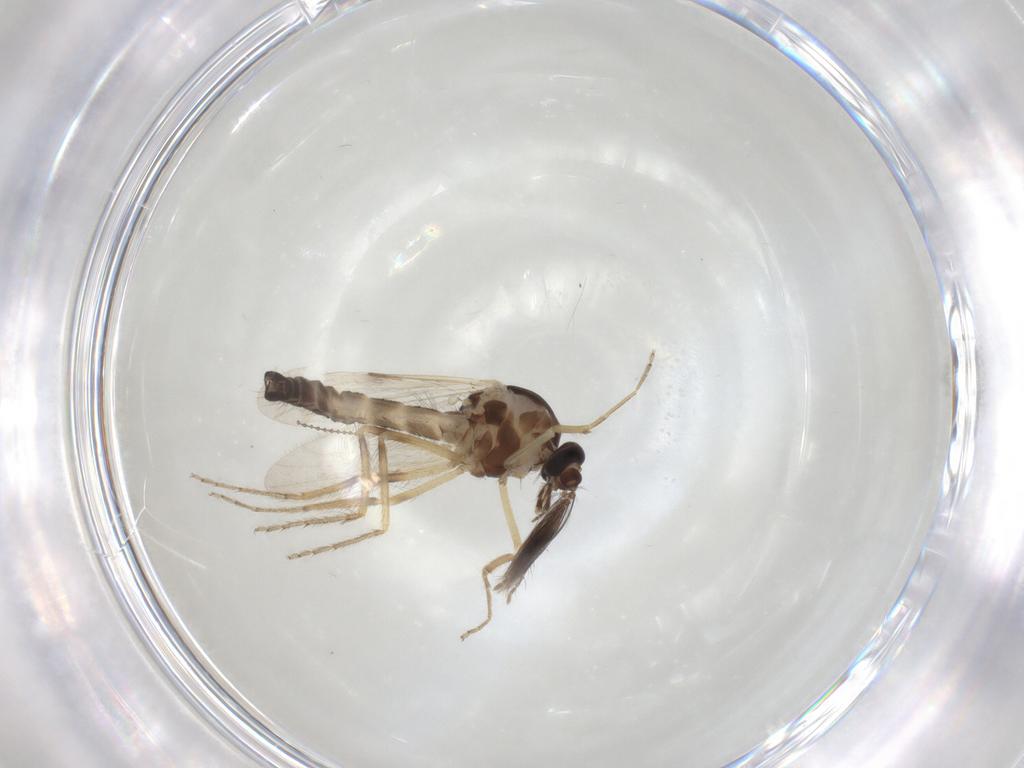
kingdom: Animalia
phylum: Arthropoda
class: Insecta
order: Diptera
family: Ceratopogonidae
